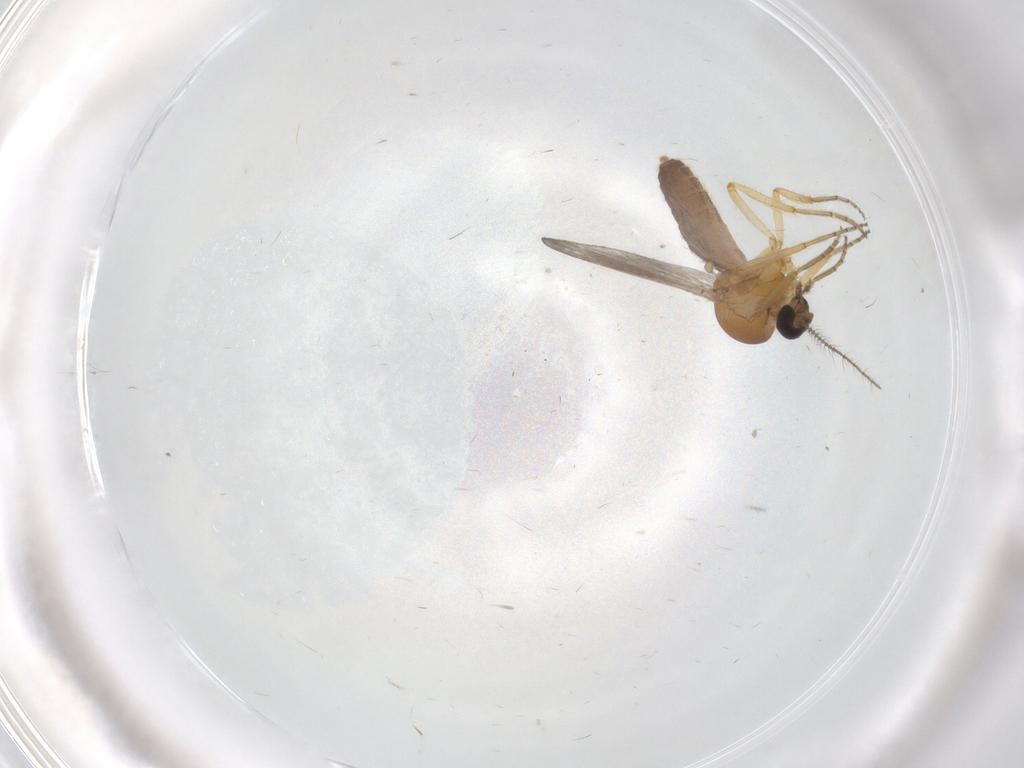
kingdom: Animalia
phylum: Arthropoda
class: Insecta
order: Diptera
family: Ceratopogonidae
